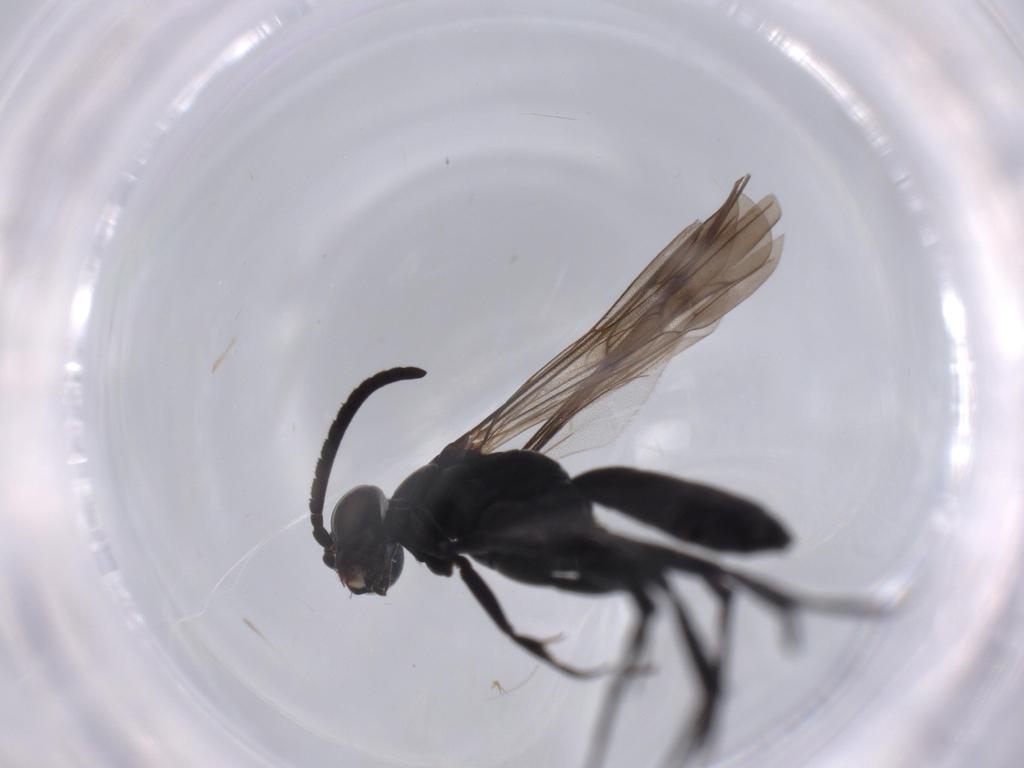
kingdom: Animalia
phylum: Arthropoda
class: Insecta
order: Hymenoptera
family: Pompilidae
